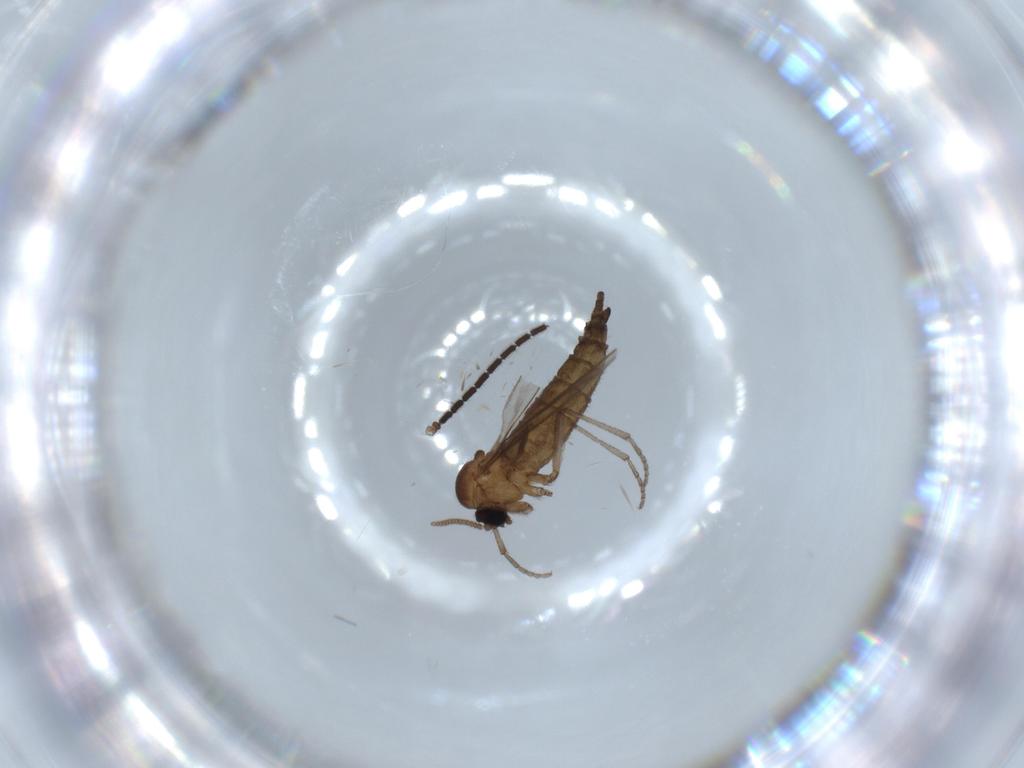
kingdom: Animalia
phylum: Arthropoda
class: Insecta
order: Diptera
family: Sciaridae
